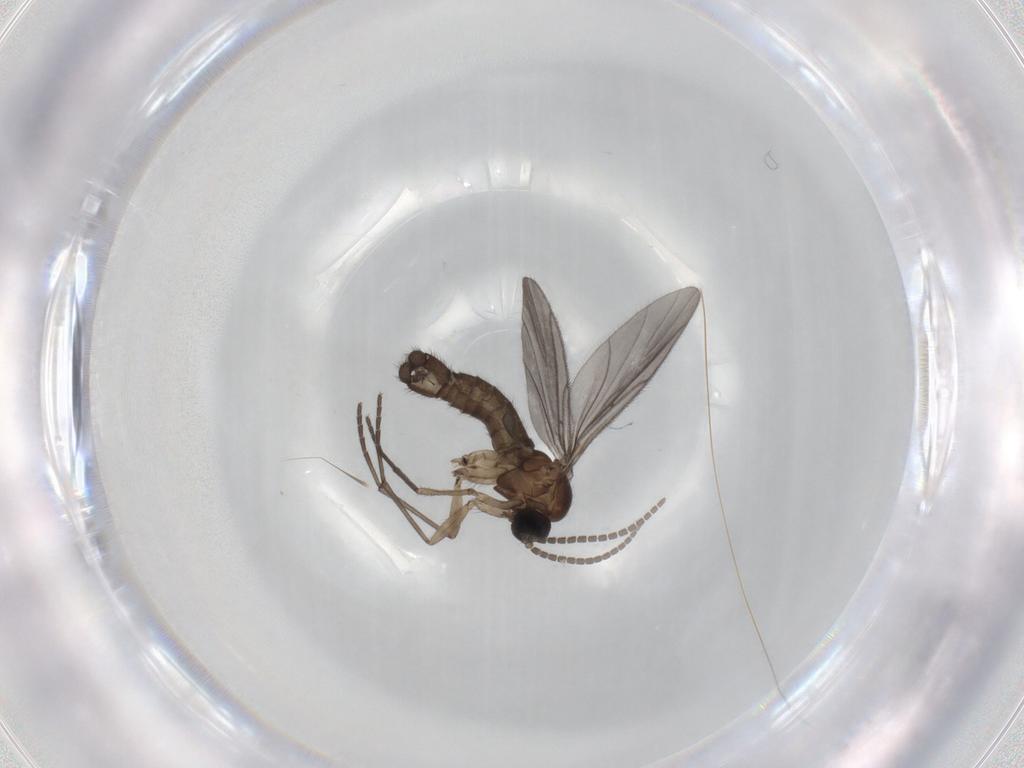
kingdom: Animalia
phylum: Arthropoda
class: Insecta
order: Diptera
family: Sciaridae
